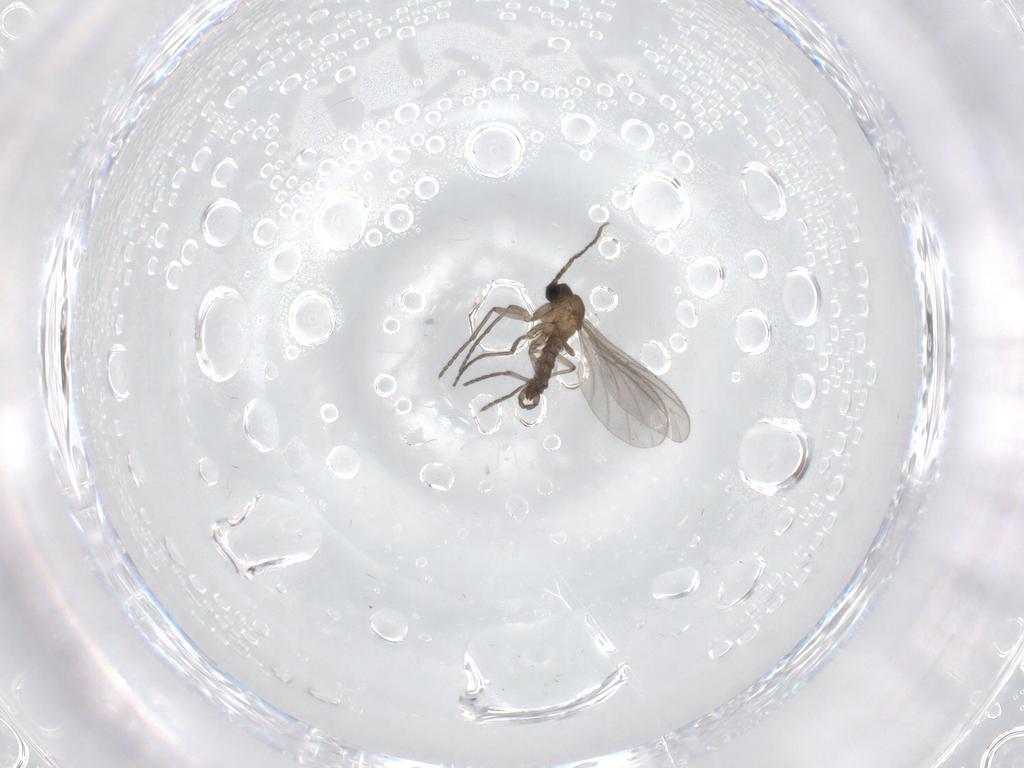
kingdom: Animalia
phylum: Arthropoda
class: Insecta
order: Diptera
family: Sciaridae
